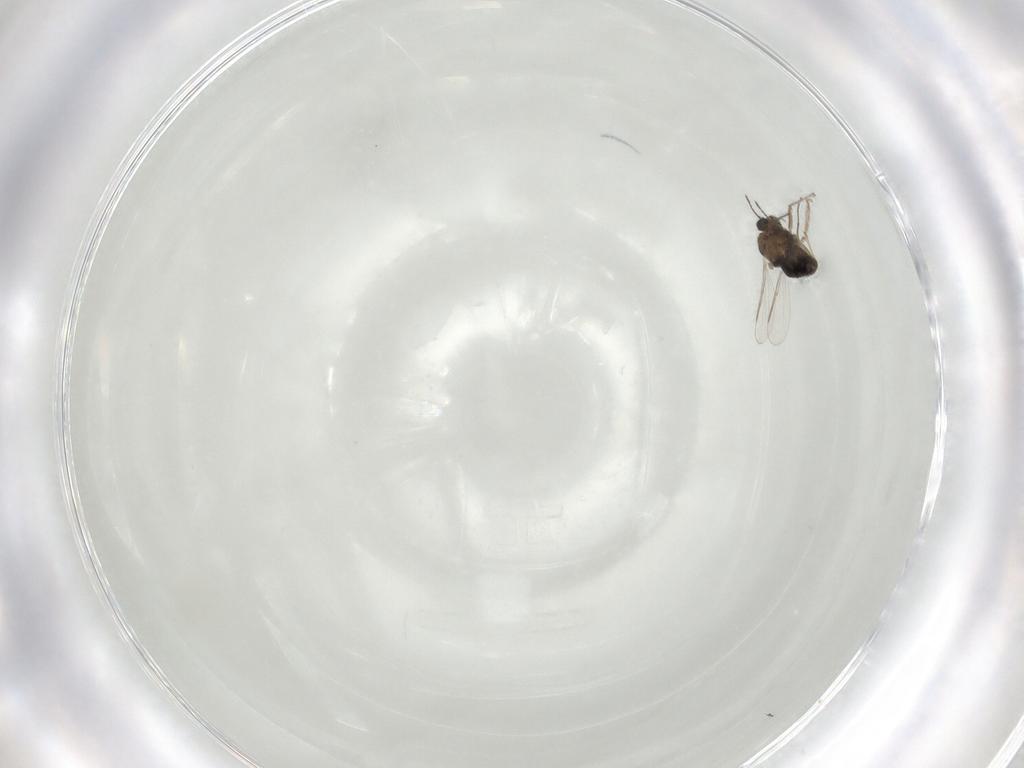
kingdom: Animalia
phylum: Arthropoda
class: Insecta
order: Diptera
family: Chironomidae
